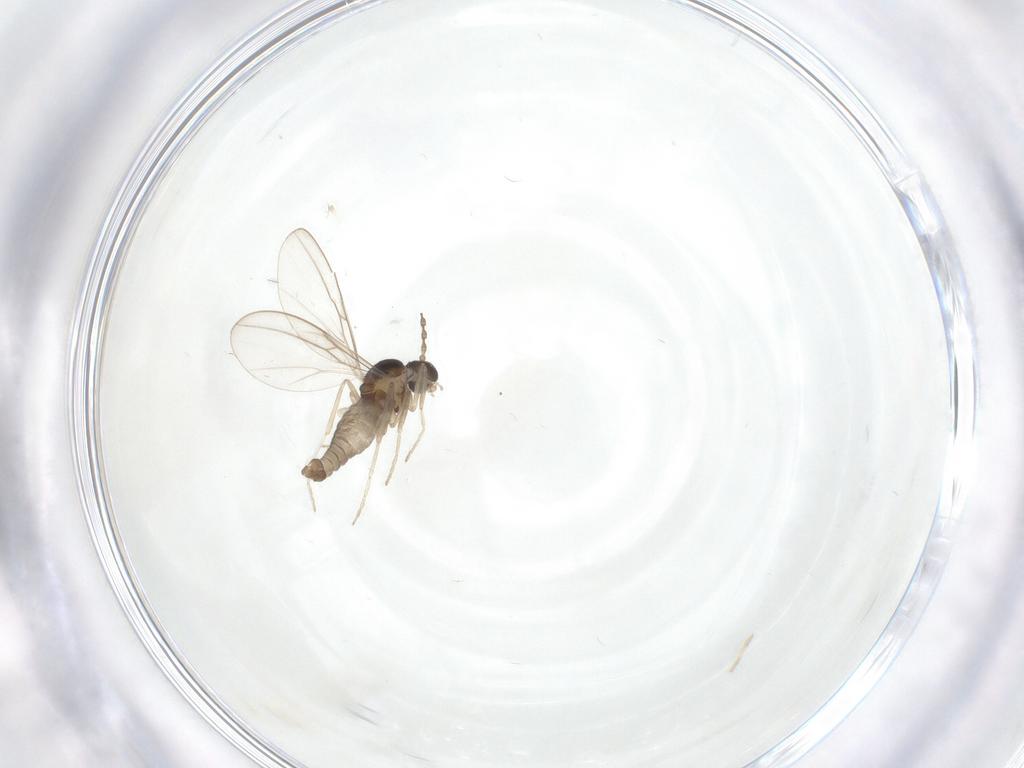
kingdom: Animalia
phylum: Arthropoda
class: Insecta
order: Diptera
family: Cecidomyiidae
